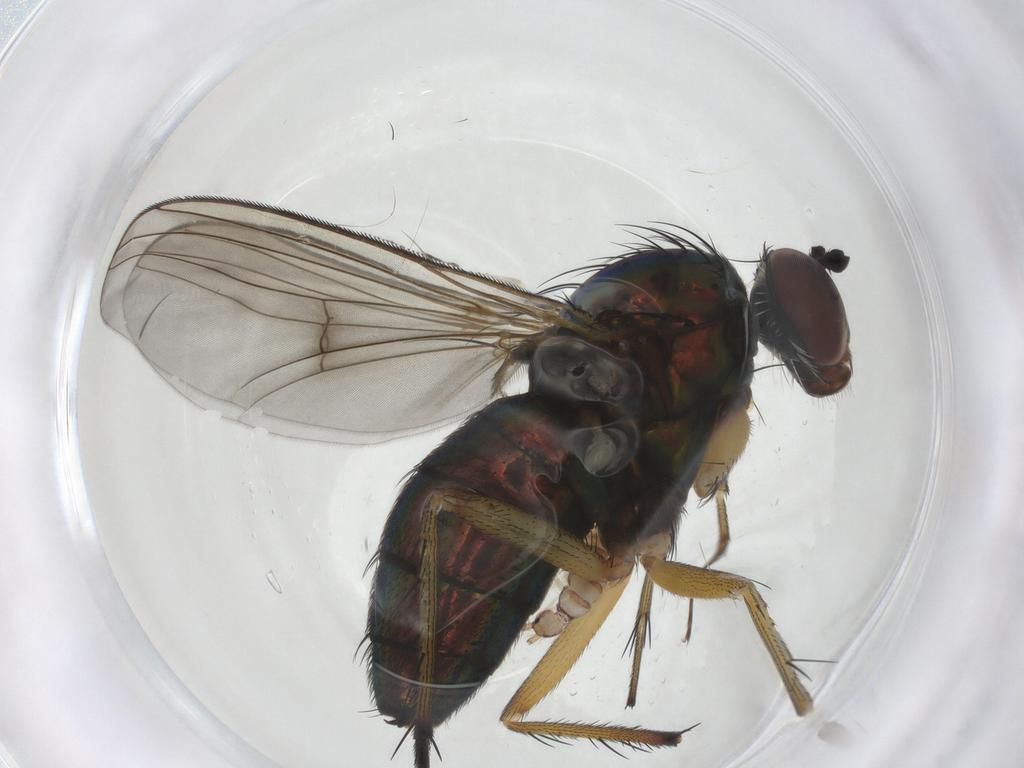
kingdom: Animalia
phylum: Arthropoda
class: Insecta
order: Diptera
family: Dolichopodidae
